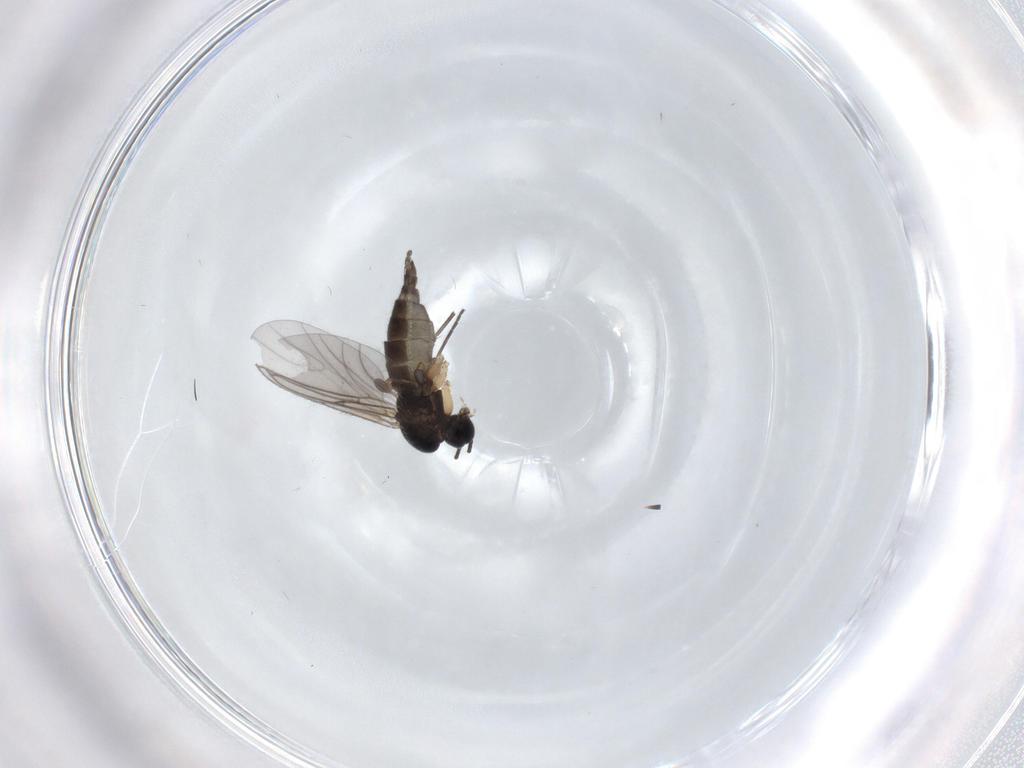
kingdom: Animalia
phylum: Arthropoda
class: Insecta
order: Diptera
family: Sciaridae
